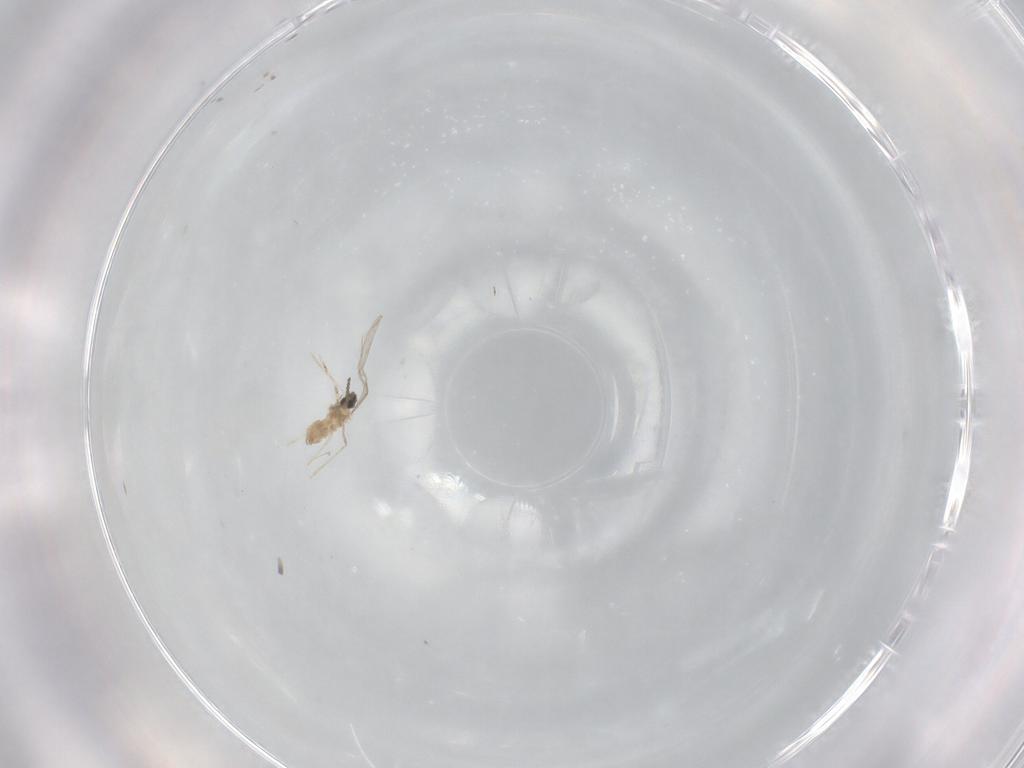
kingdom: Animalia
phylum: Arthropoda
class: Insecta
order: Diptera
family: Cecidomyiidae
